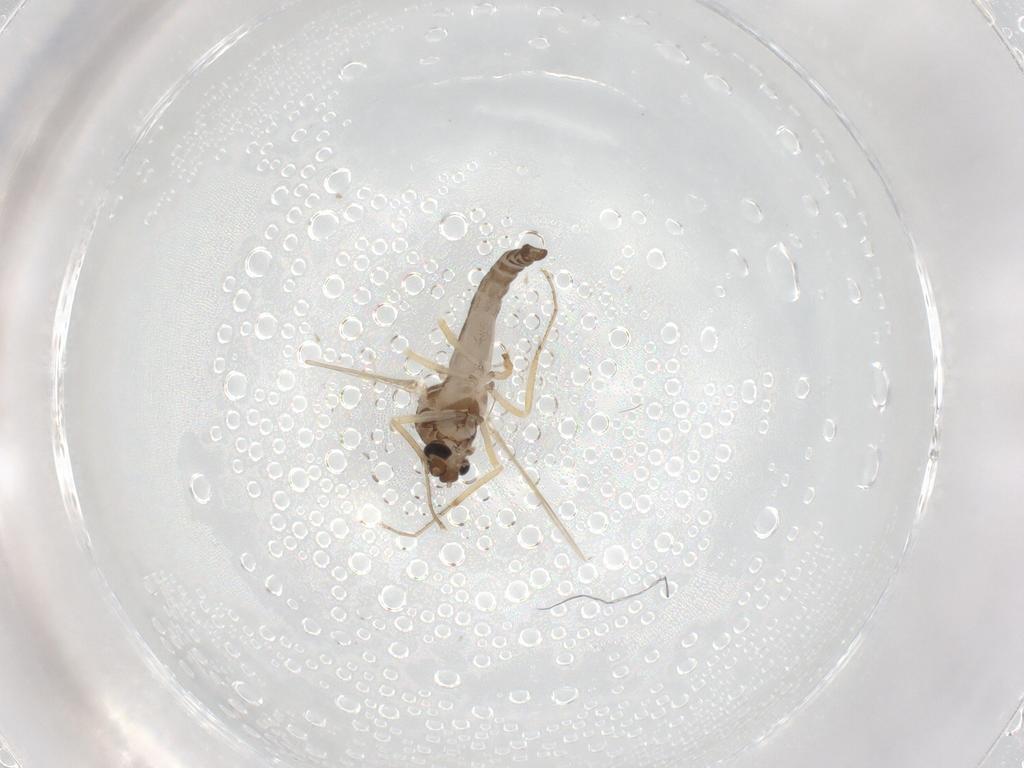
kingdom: Animalia
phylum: Arthropoda
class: Insecta
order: Diptera
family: Ceratopogonidae
